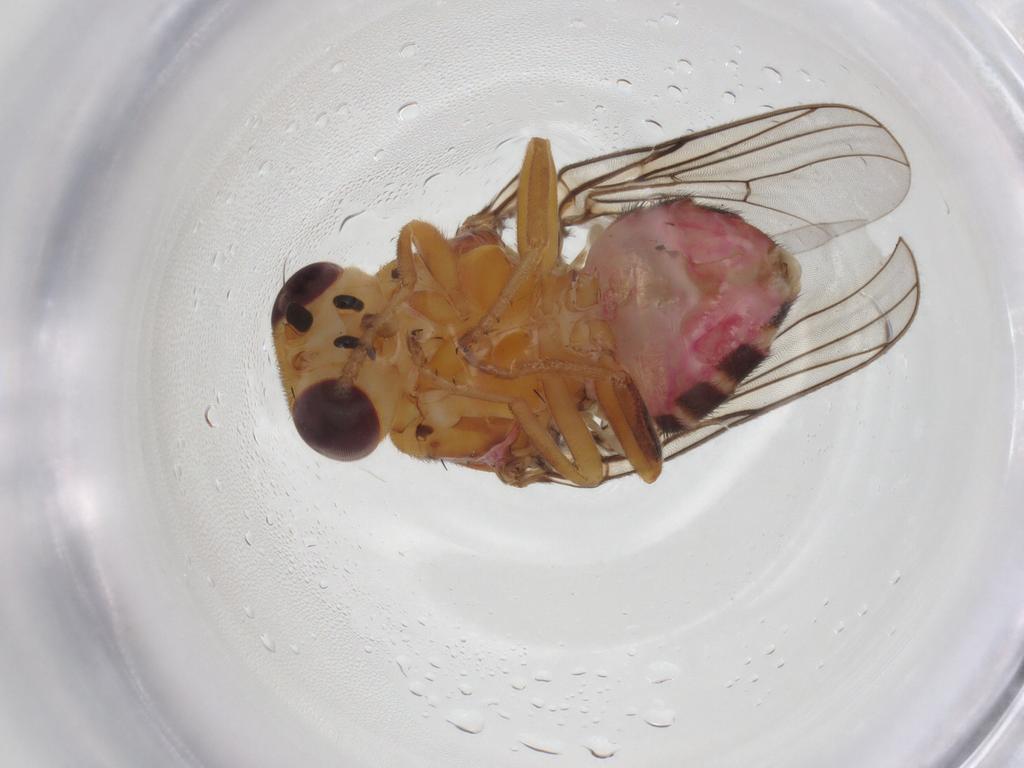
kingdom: Animalia
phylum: Arthropoda
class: Insecta
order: Diptera
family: Chloropidae
